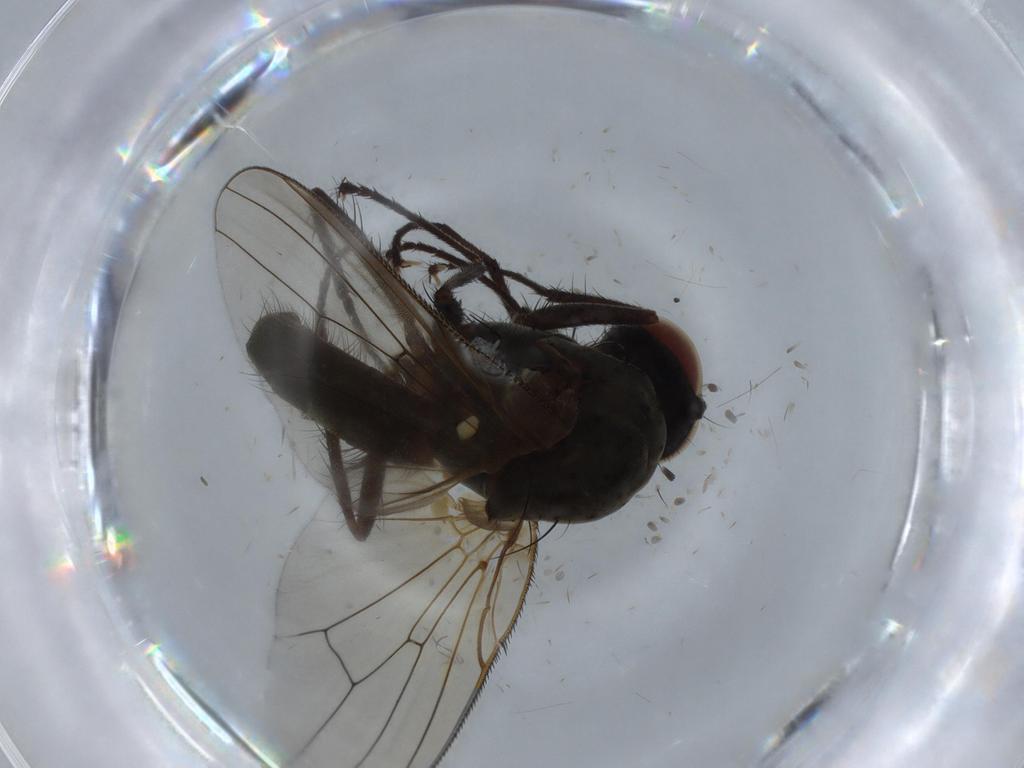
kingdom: Animalia
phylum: Arthropoda
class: Insecta
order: Diptera
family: Anthomyiidae
